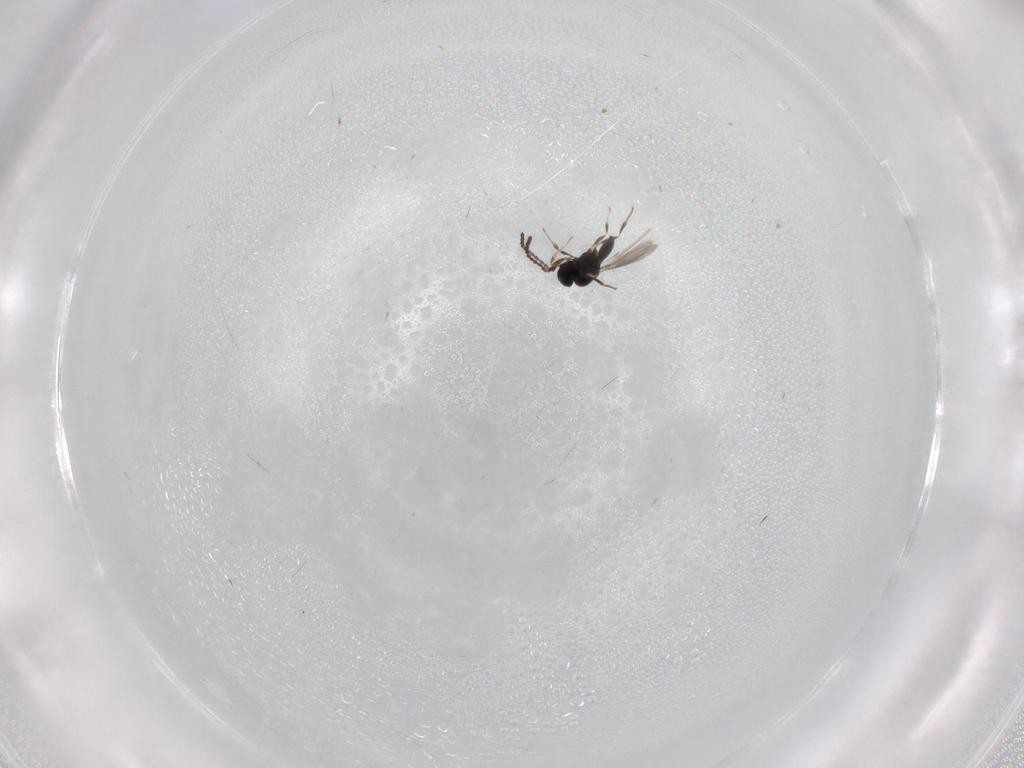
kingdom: Animalia
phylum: Arthropoda
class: Insecta
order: Hymenoptera
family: Scelionidae
